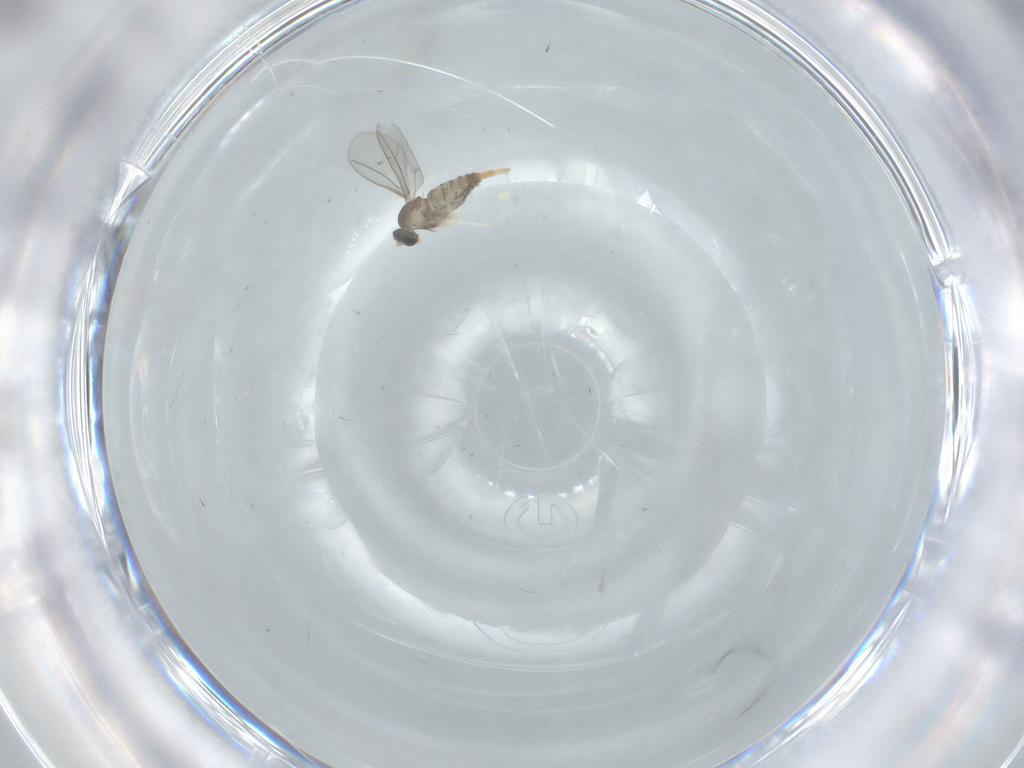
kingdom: Animalia
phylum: Arthropoda
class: Insecta
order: Diptera
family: Cecidomyiidae
